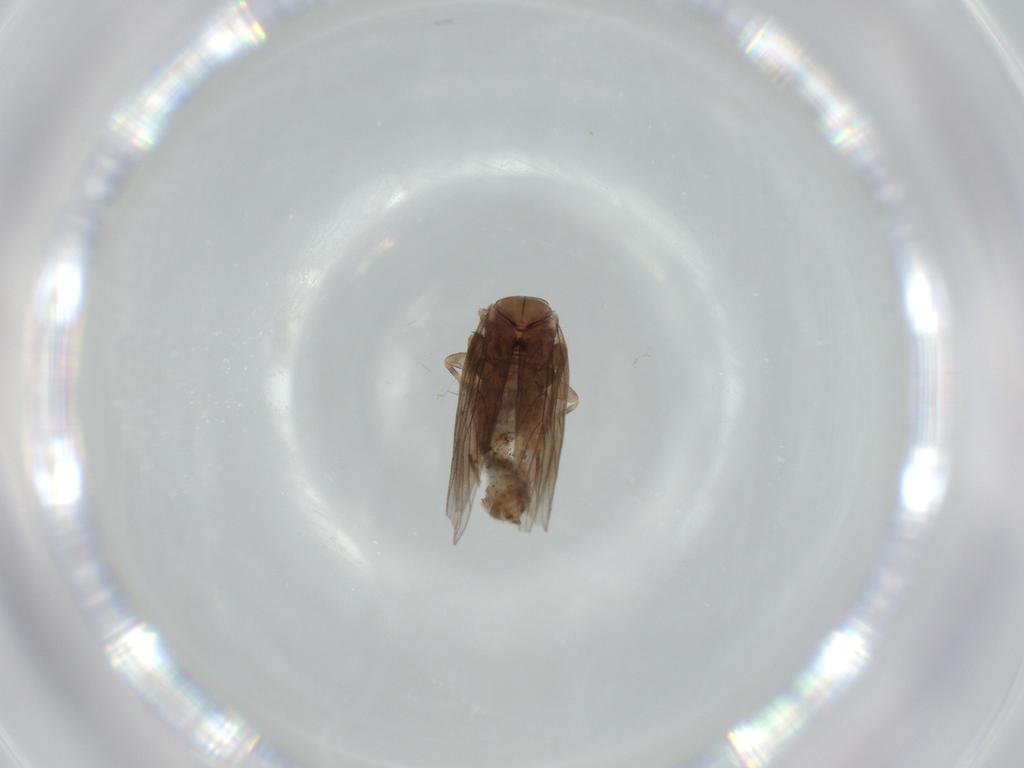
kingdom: Animalia
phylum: Arthropoda
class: Insecta
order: Psocodea
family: Lepidopsocidae
